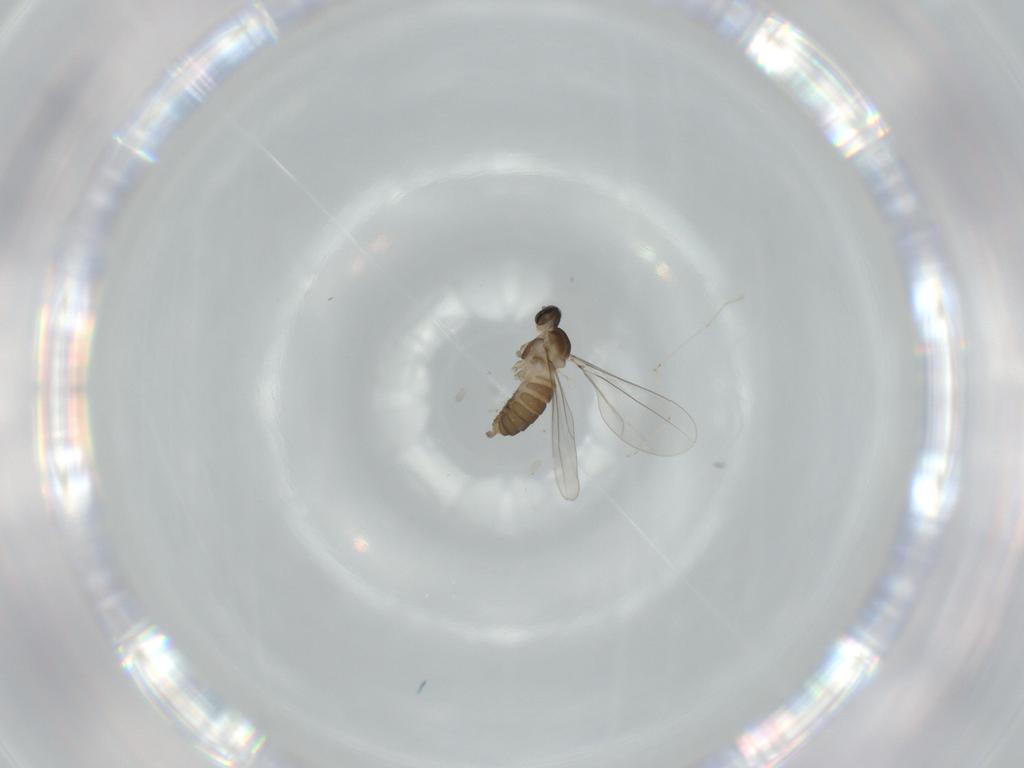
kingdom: Animalia
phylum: Arthropoda
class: Insecta
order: Diptera
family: Cecidomyiidae
